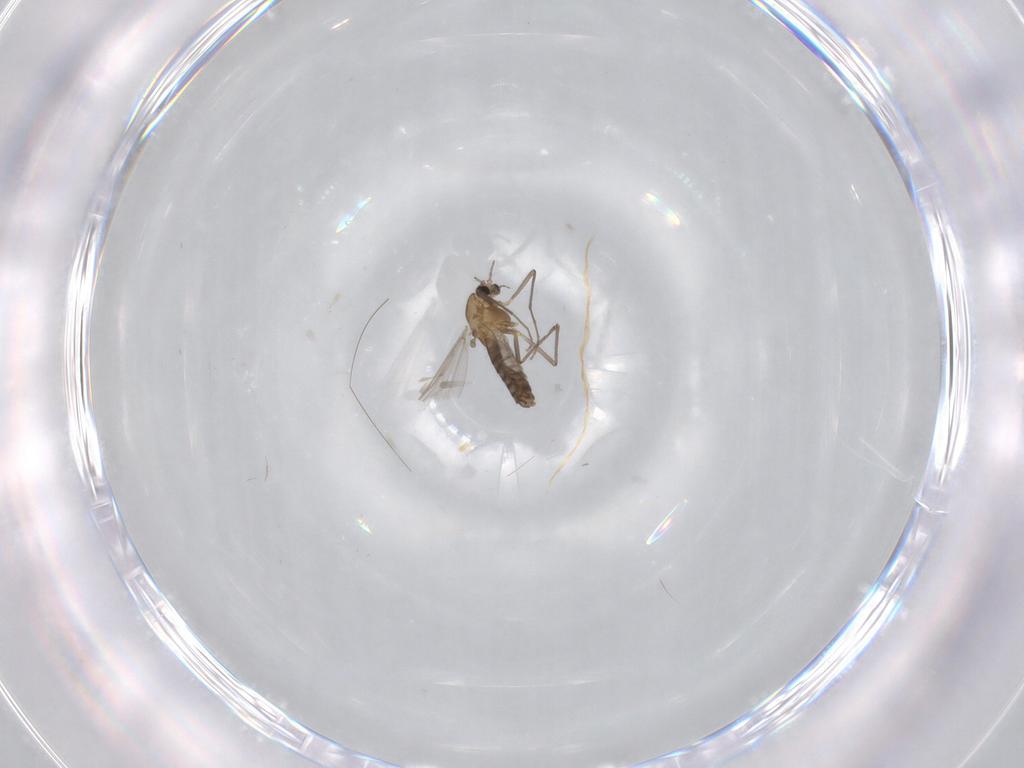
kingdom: Animalia
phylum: Arthropoda
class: Insecta
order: Diptera
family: Chironomidae
